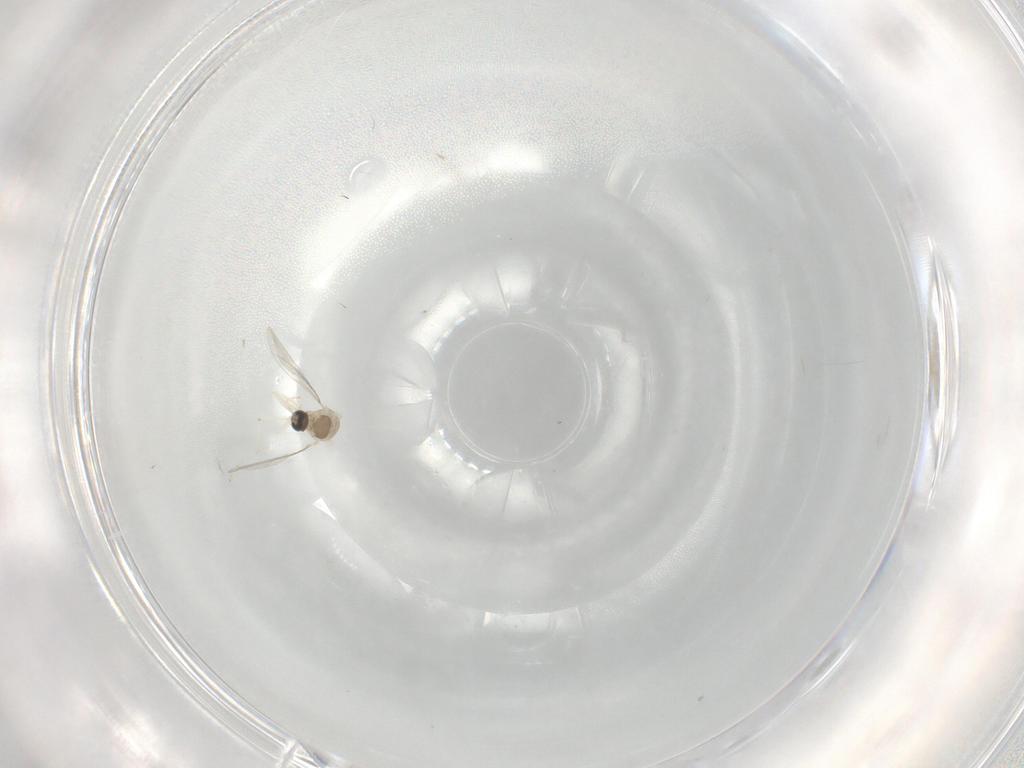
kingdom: Animalia
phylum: Arthropoda
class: Insecta
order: Diptera
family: Cecidomyiidae
